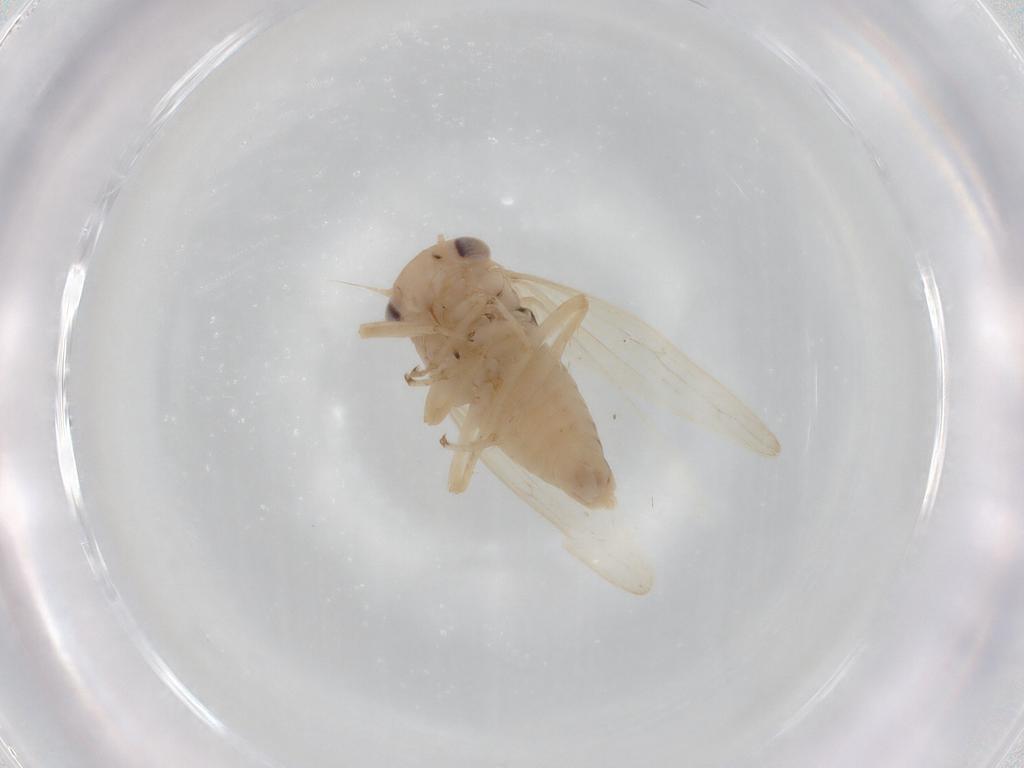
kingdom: Animalia
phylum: Arthropoda
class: Insecta
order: Hemiptera
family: Cicadellidae
